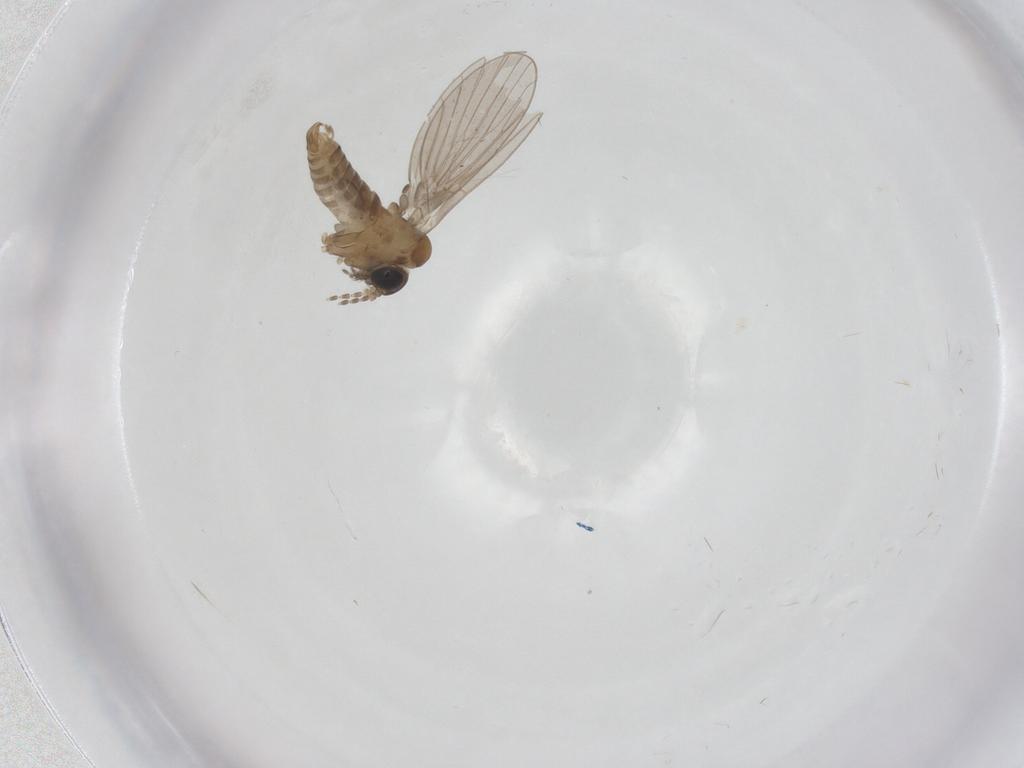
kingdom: Animalia
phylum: Arthropoda
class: Insecta
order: Diptera
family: Psychodidae
